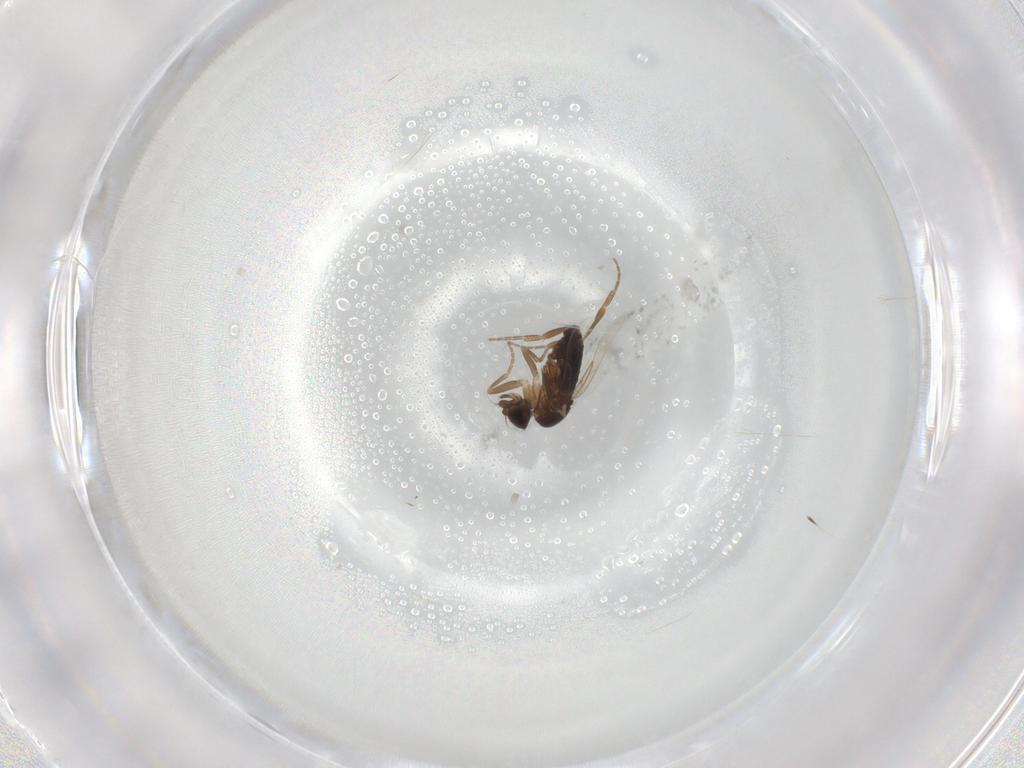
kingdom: Animalia
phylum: Arthropoda
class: Insecta
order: Diptera
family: Phoridae
